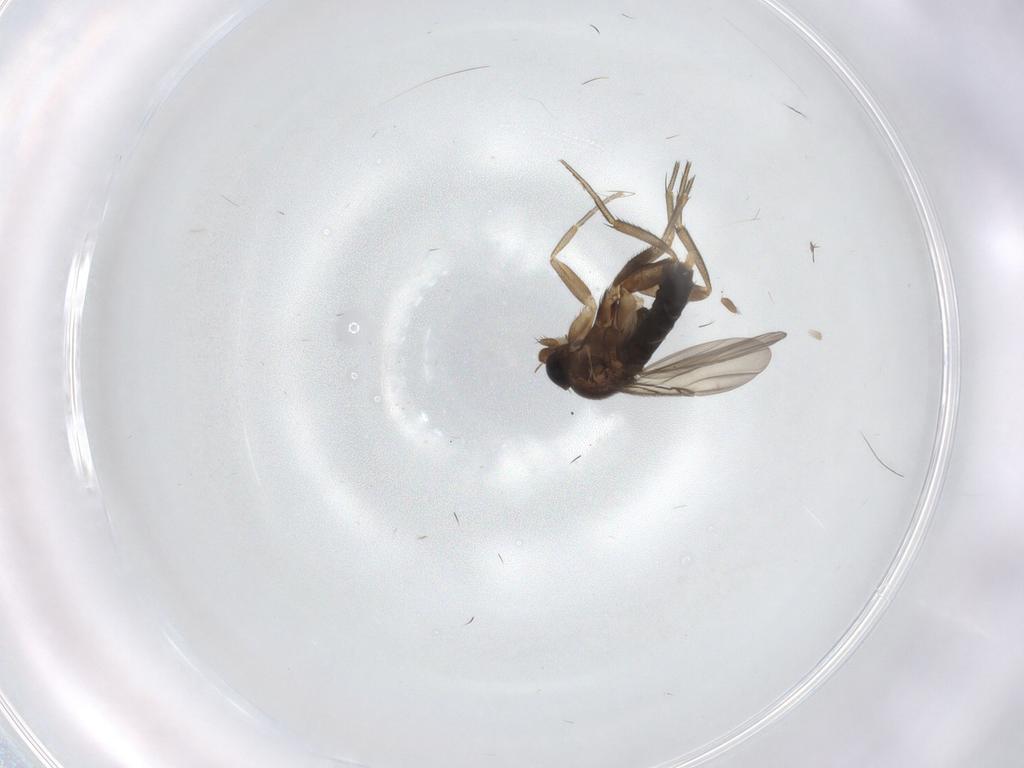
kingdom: Animalia
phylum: Arthropoda
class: Insecta
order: Diptera
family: Phoridae
